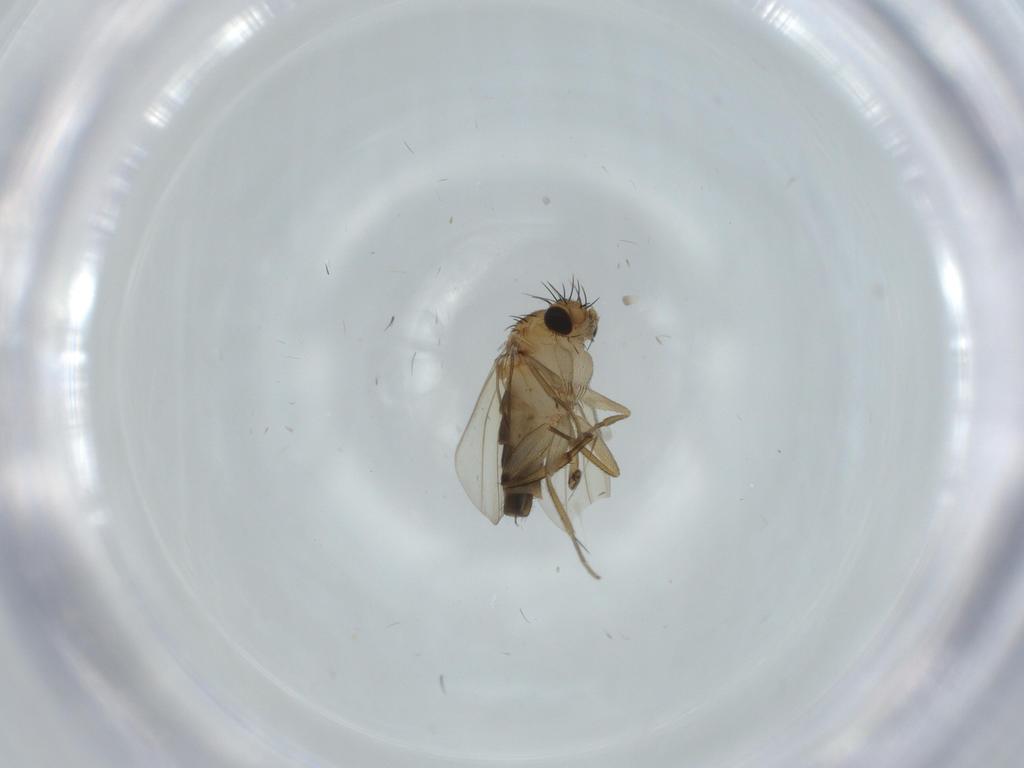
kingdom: Animalia
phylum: Arthropoda
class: Insecta
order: Diptera
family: Chironomidae
